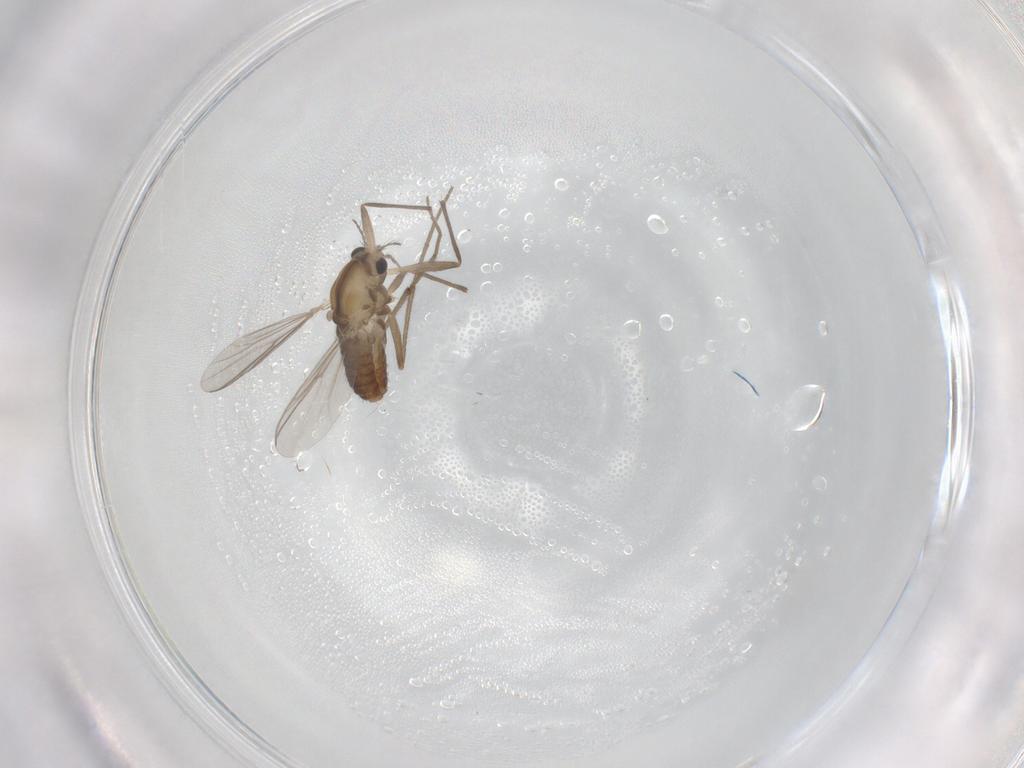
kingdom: Animalia
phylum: Arthropoda
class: Insecta
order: Diptera
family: Chironomidae
